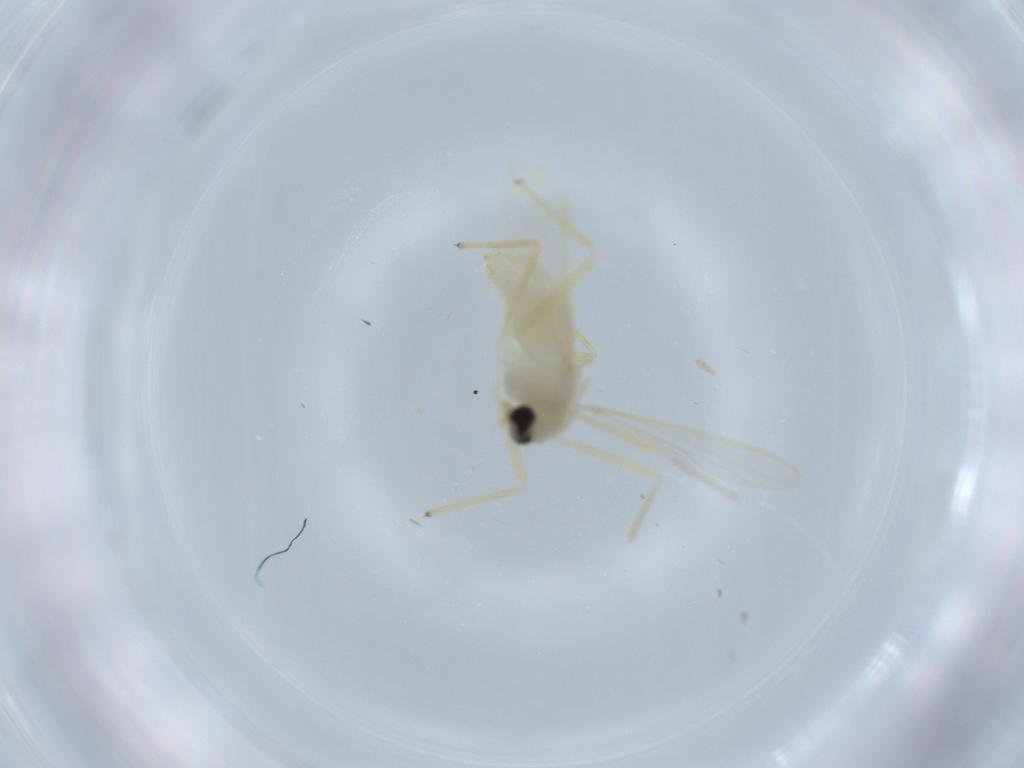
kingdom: Animalia
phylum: Arthropoda
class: Insecta
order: Diptera
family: Chironomidae
